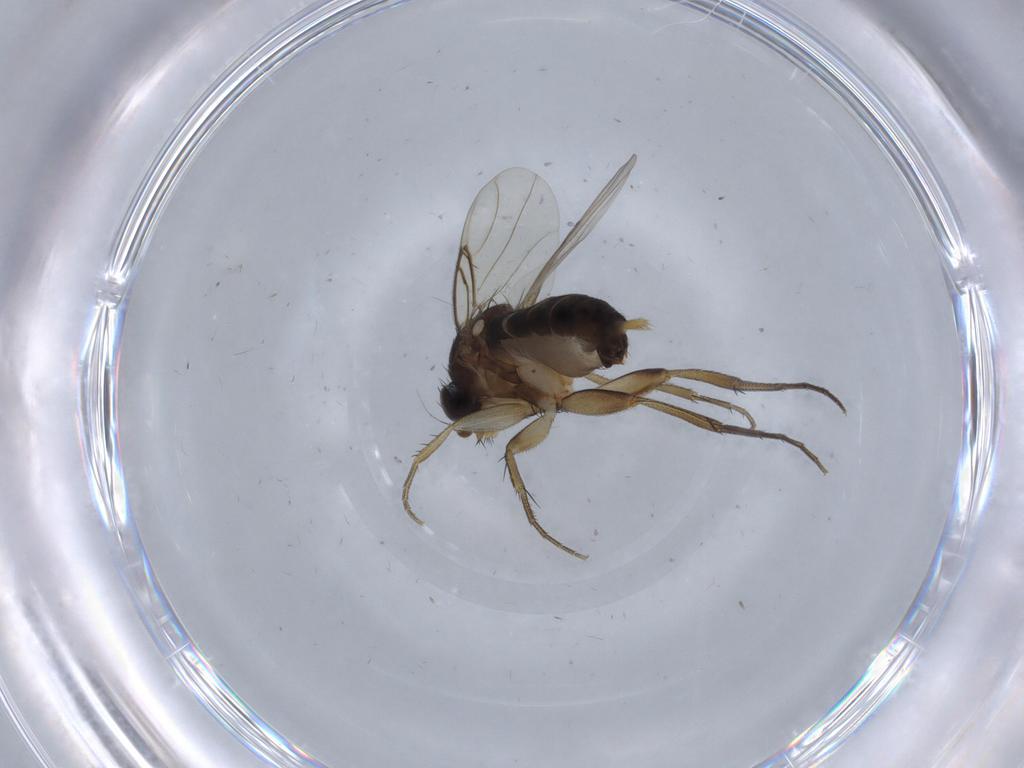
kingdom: Animalia
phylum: Arthropoda
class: Insecta
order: Diptera
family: Phoridae
